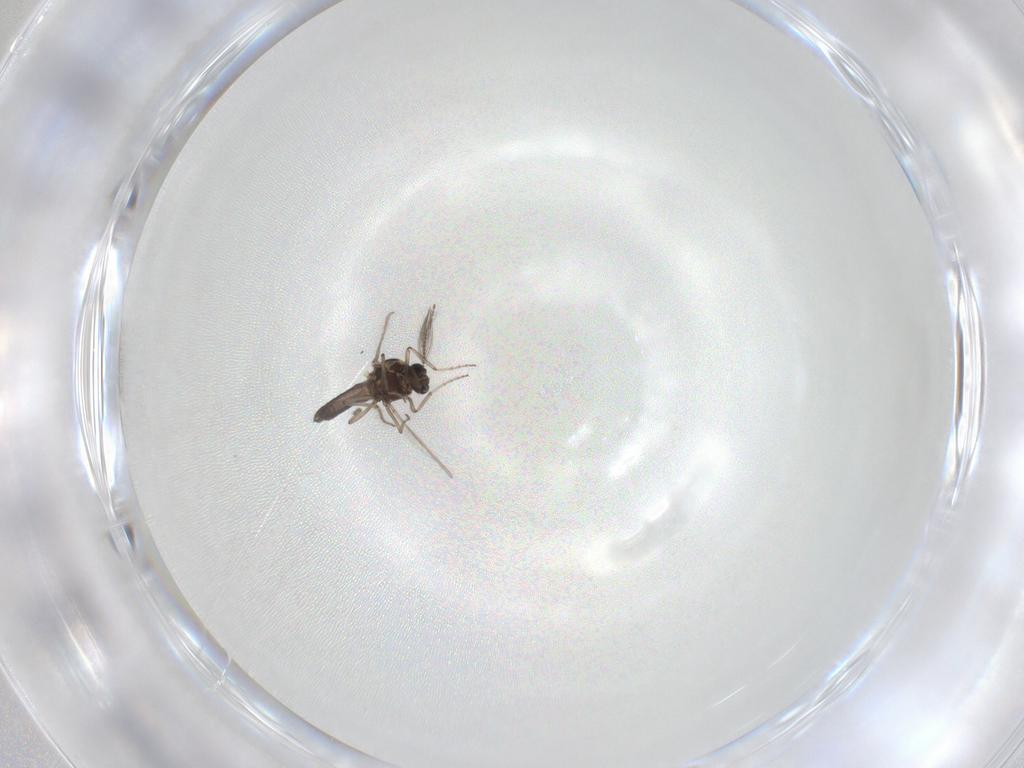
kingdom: Animalia
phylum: Arthropoda
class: Insecta
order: Diptera
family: Ceratopogonidae
